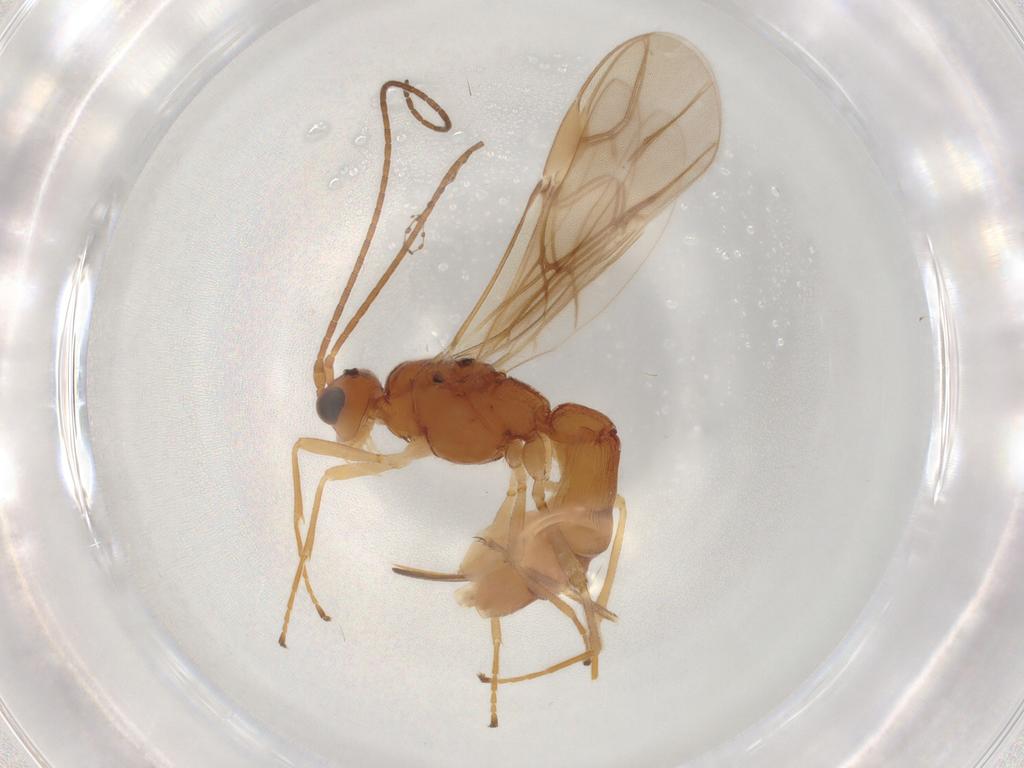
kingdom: Animalia
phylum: Arthropoda
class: Insecta
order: Hymenoptera
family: Braconidae
